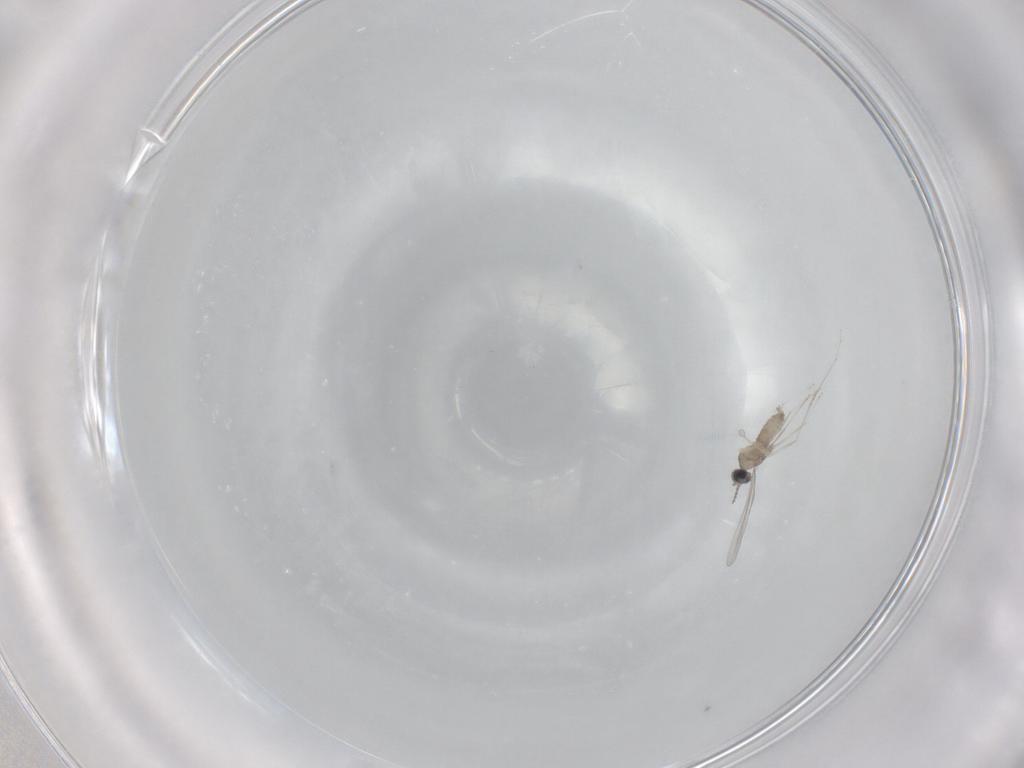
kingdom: Animalia
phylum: Arthropoda
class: Insecta
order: Diptera
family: Cecidomyiidae
